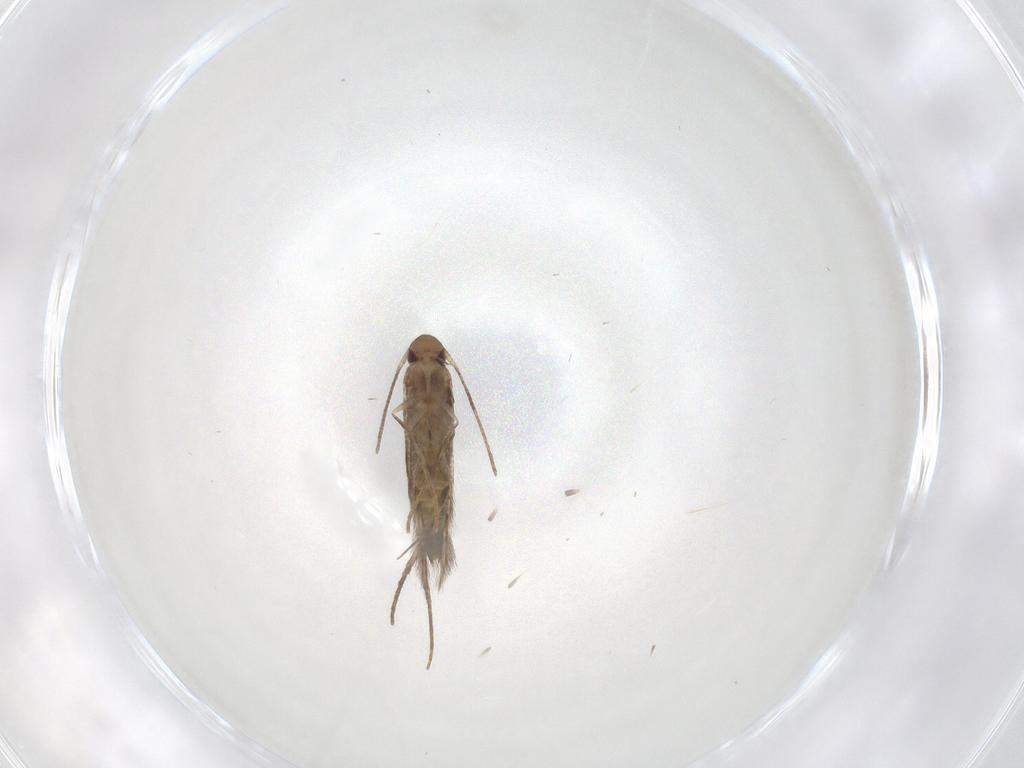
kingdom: Animalia
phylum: Arthropoda
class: Insecta
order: Lepidoptera
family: Gelechiidae
